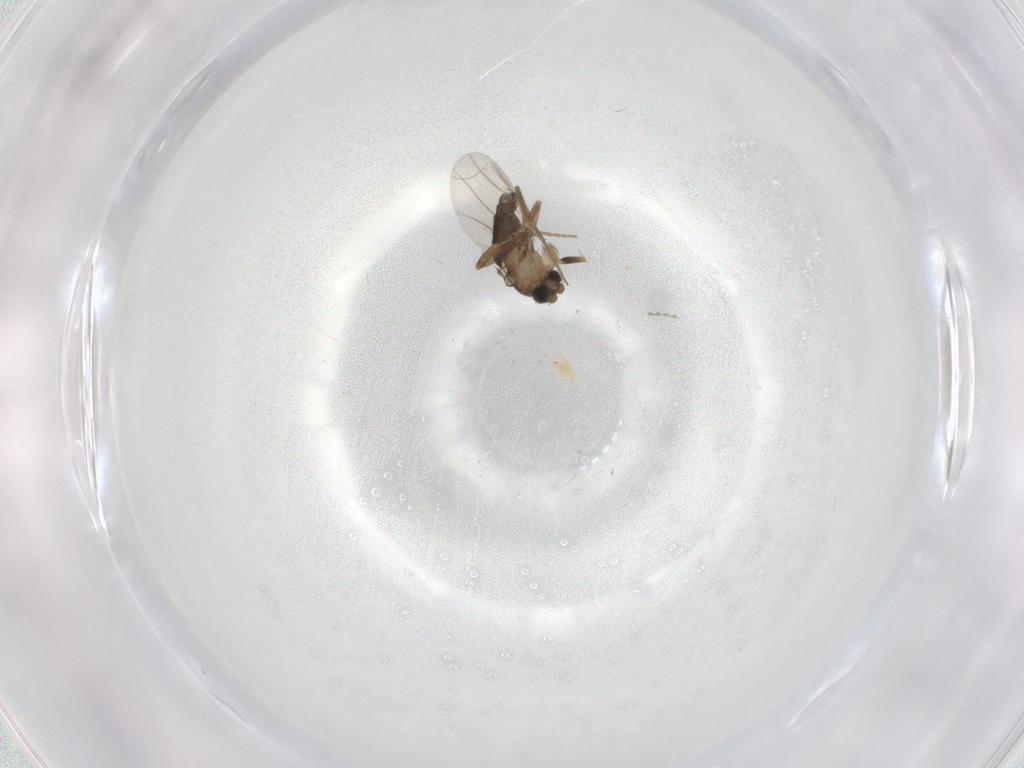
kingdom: Animalia
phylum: Arthropoda
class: Insecta
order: Diptera
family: Phoridae
